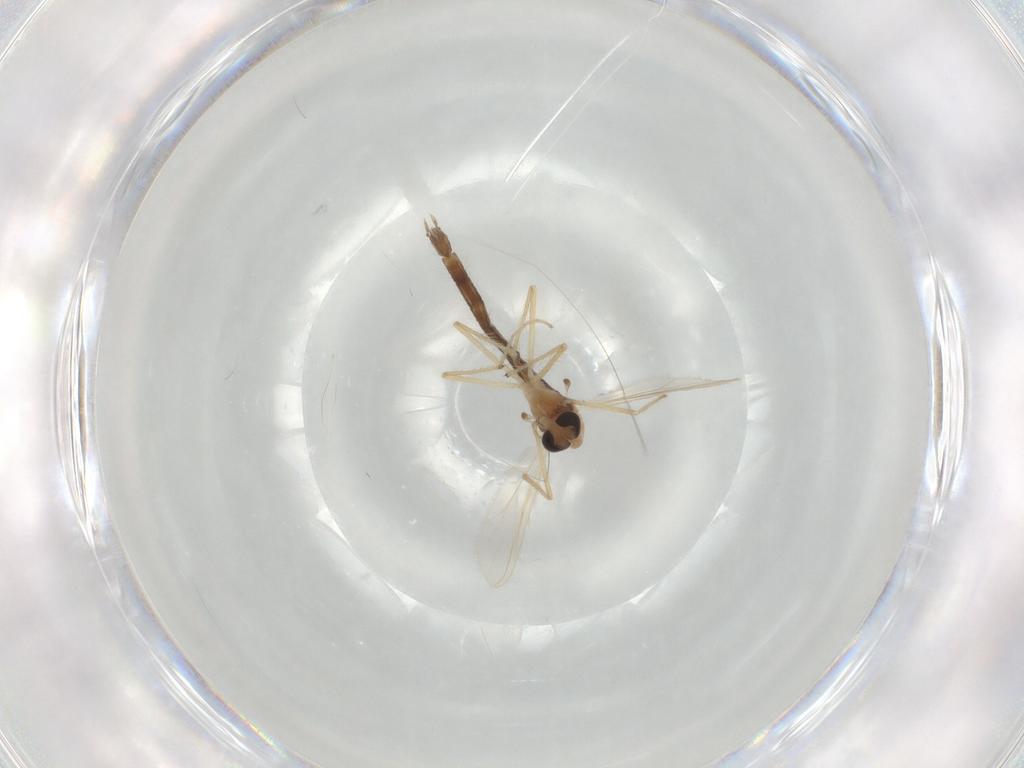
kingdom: Animalia
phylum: Arthropoda
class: Insecta
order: Diptera
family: Chironomidae
